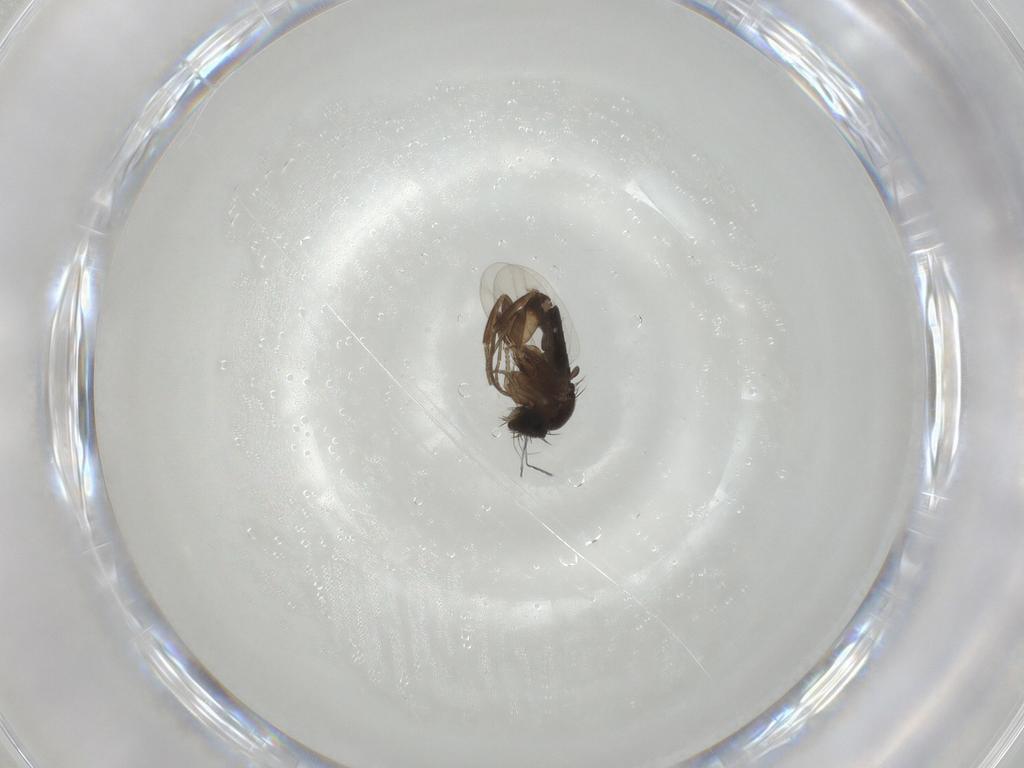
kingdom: Animalia
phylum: Arthropoda
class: Insecta
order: Diptera
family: Phoridae
